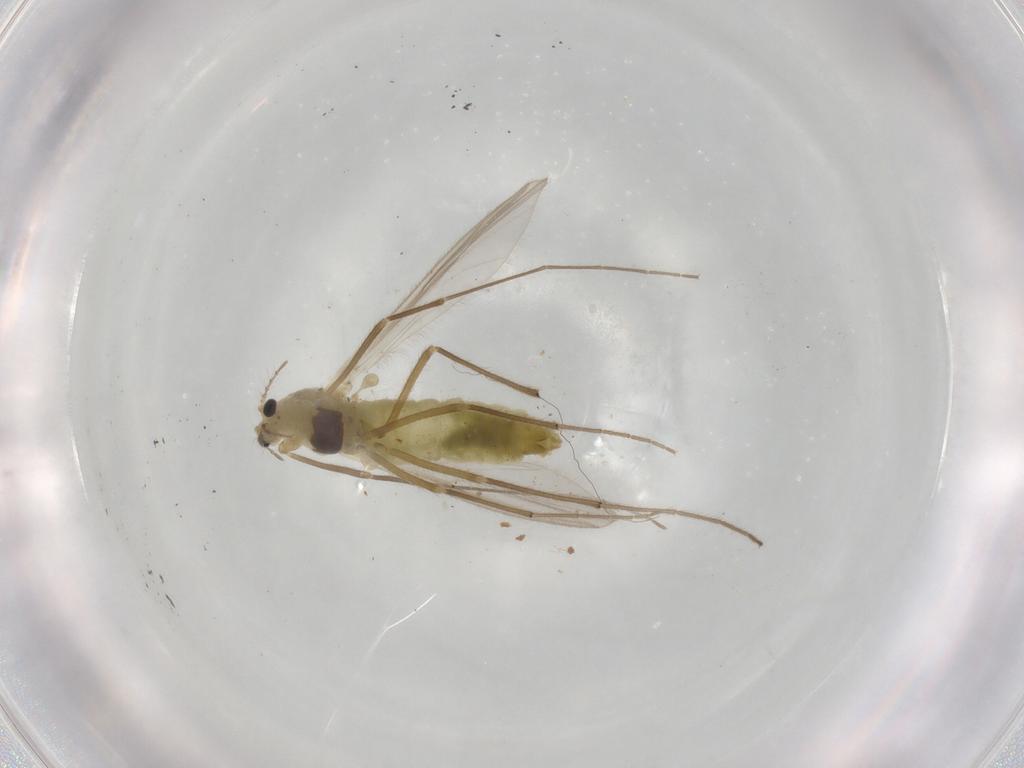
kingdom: Animalia
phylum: Arthropoda
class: Insecta
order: Diptera
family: Chironomidae
